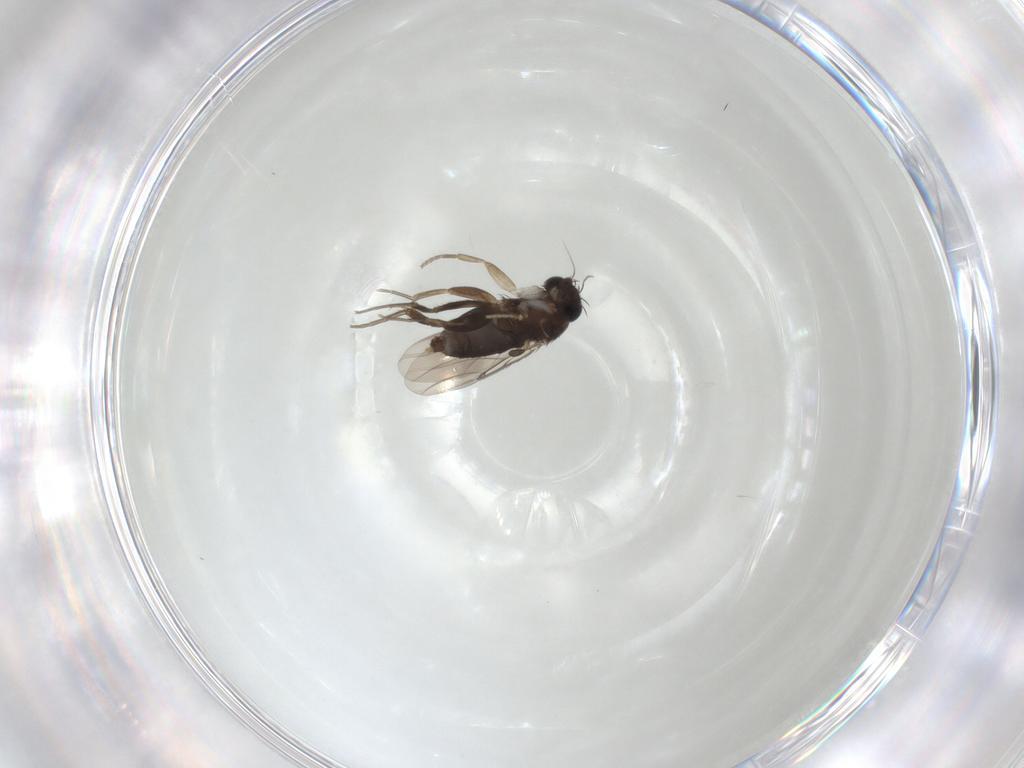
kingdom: Animalia
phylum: Arthropoda
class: Insecta
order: Diptera
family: Phoridae
